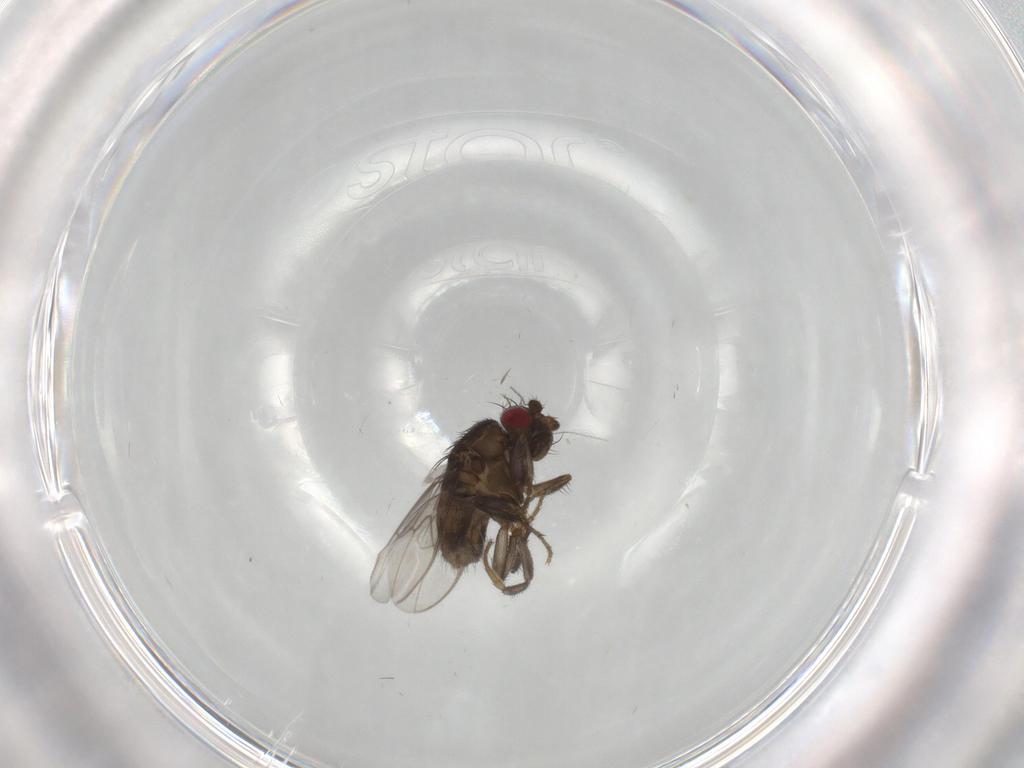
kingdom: Animalia
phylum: Arthropoda
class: Insecta
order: Diptera
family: Sphaeroceridae
